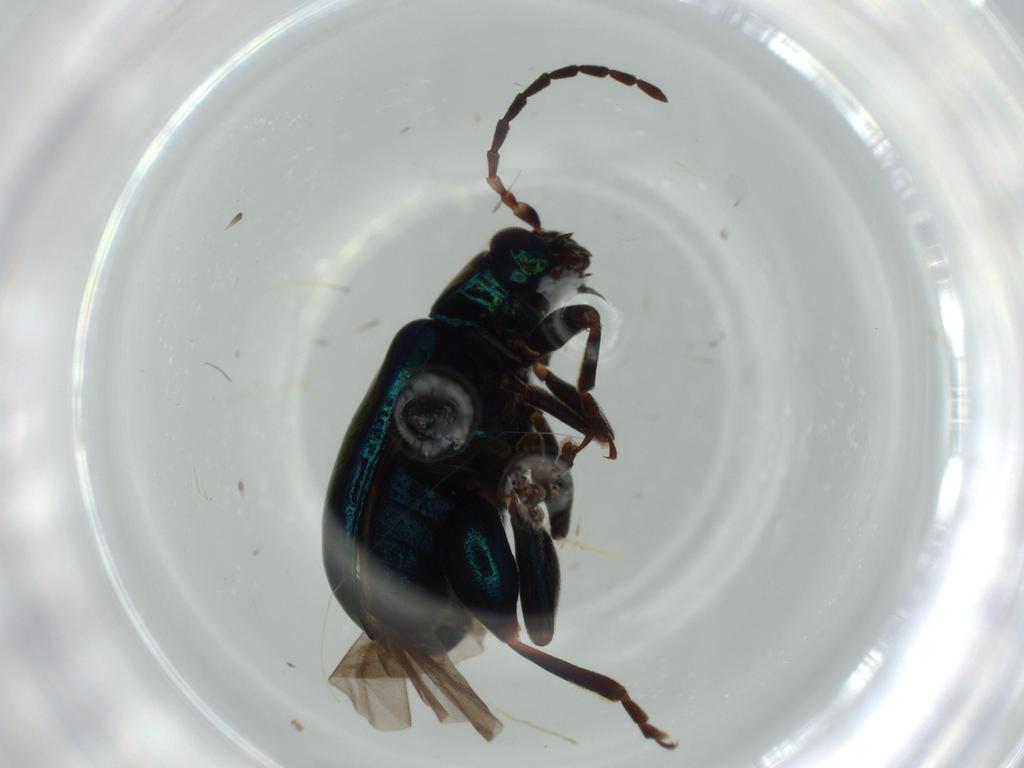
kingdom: Animalia
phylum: Arthropoda
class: Insecta
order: Coleoptera
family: Chrysomelidae
